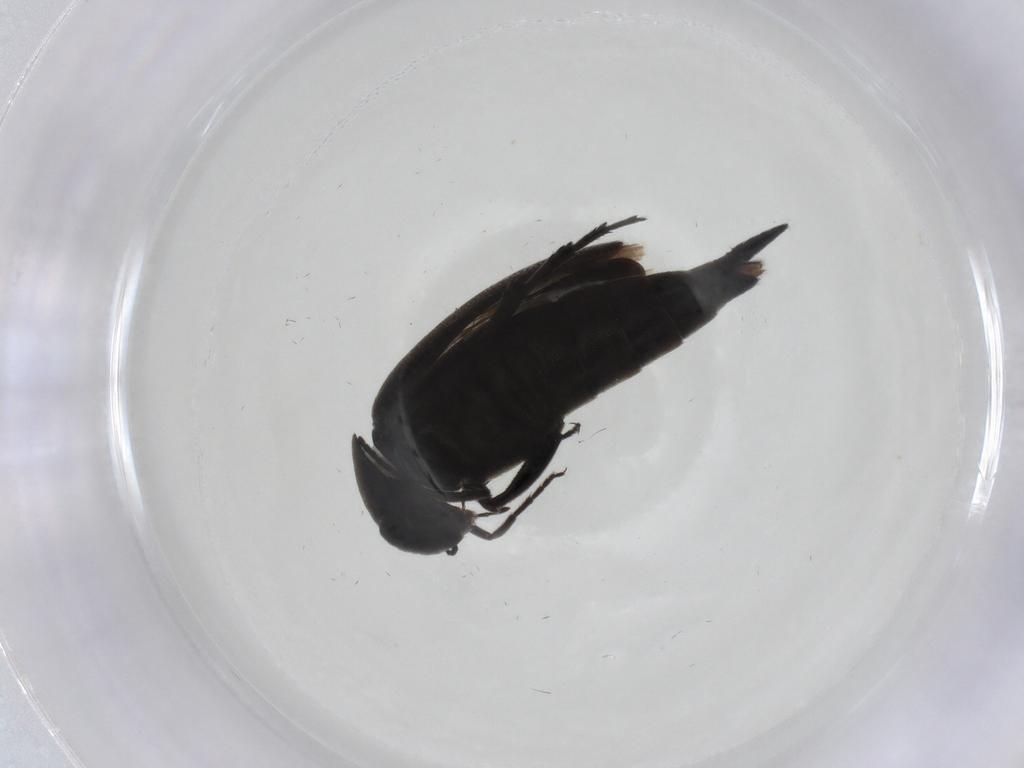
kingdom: Animalia
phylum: Arthropoda
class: Insecta
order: Coleoptera
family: Mordellidae
